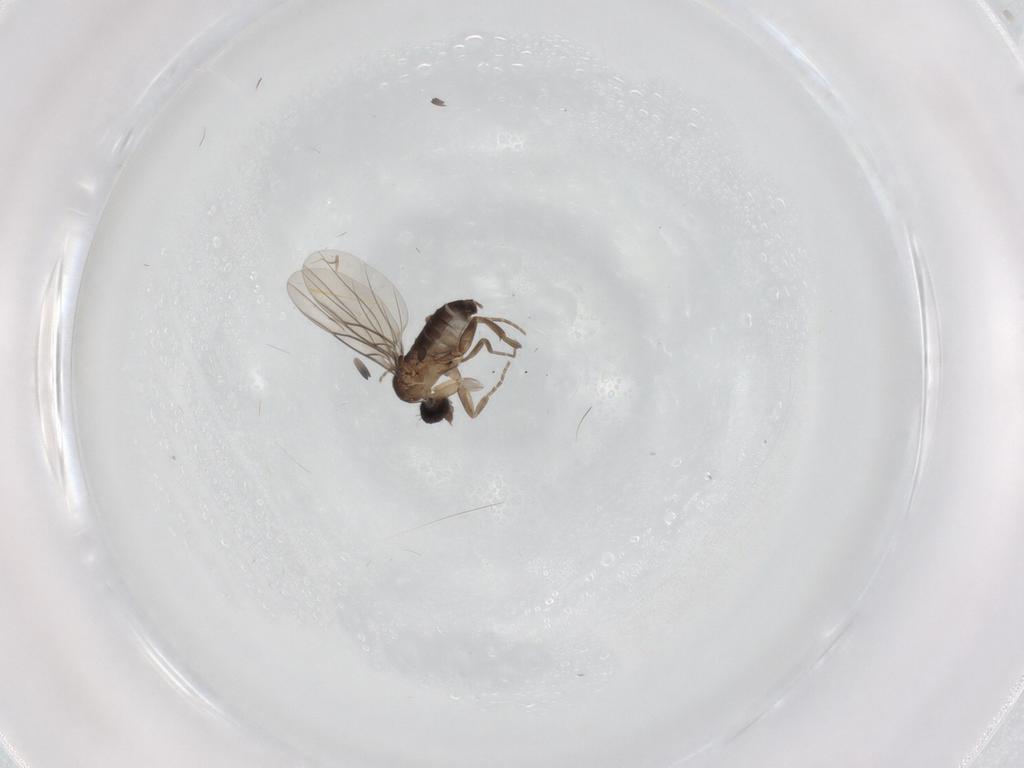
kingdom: Animalia
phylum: Arthropoda
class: Insecta
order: Diptera
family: Phoridae
